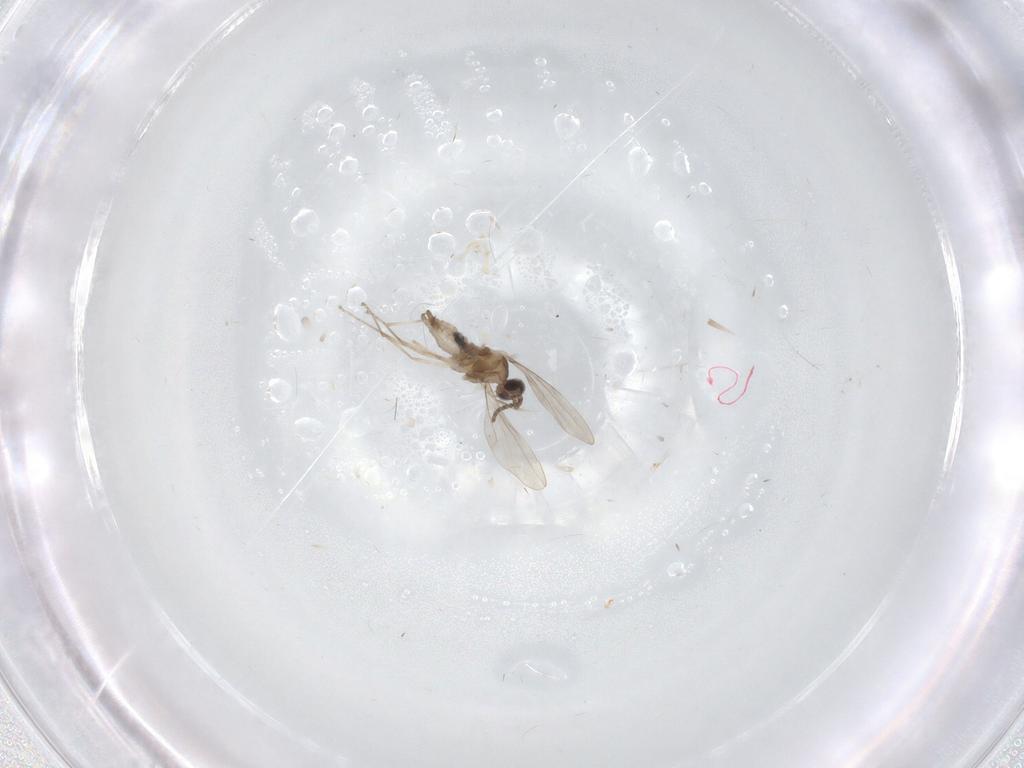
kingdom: Animalia
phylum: Arthropoda
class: Insecta
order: Diptera
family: Cecidomyiidae
